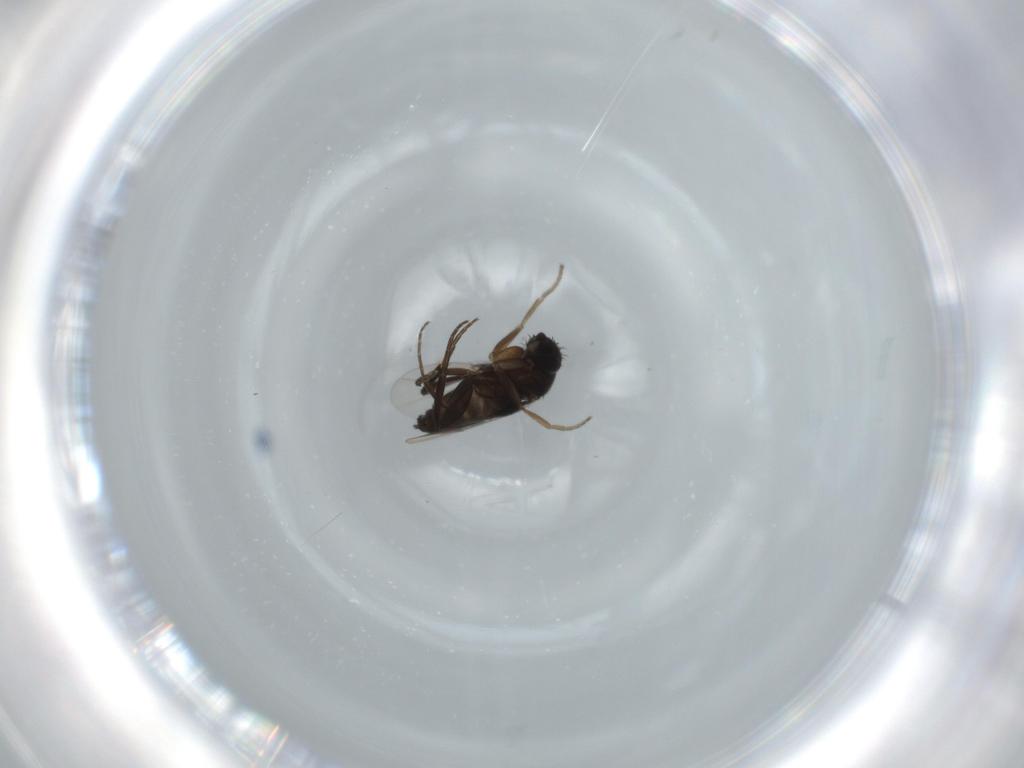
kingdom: Animalia
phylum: Arthropoda
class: Insecta
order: Diptera
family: Phoridae
